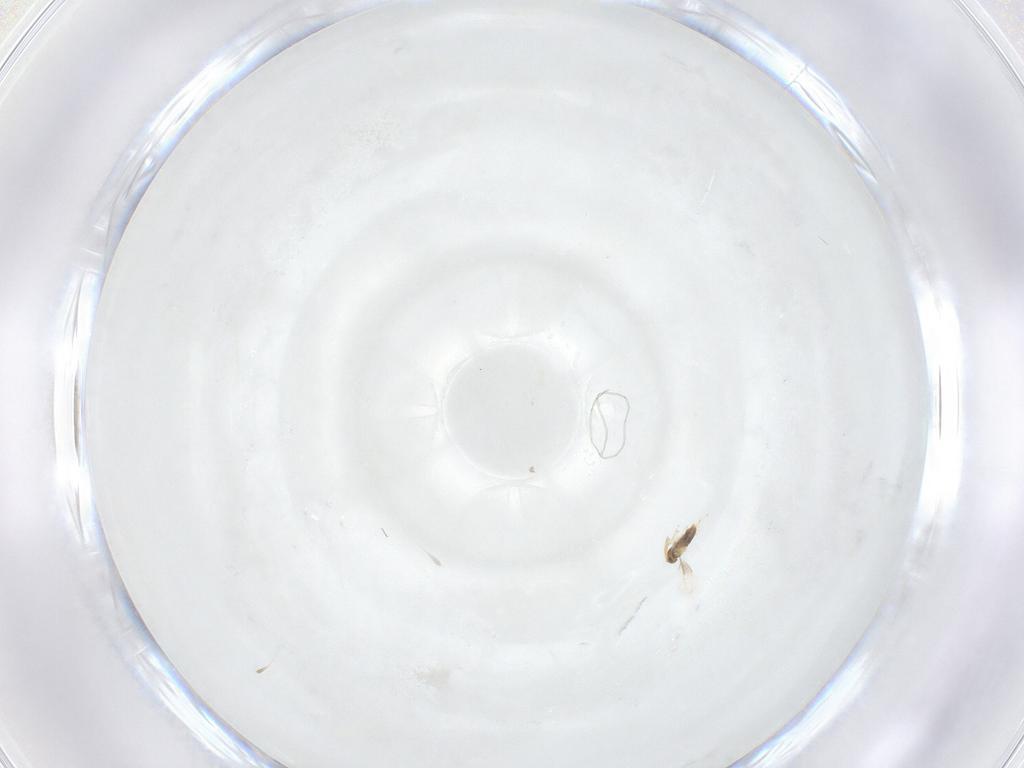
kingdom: Animalia
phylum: Arthropoda
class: Insecta
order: Hymenoptera
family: Aphelinidae
